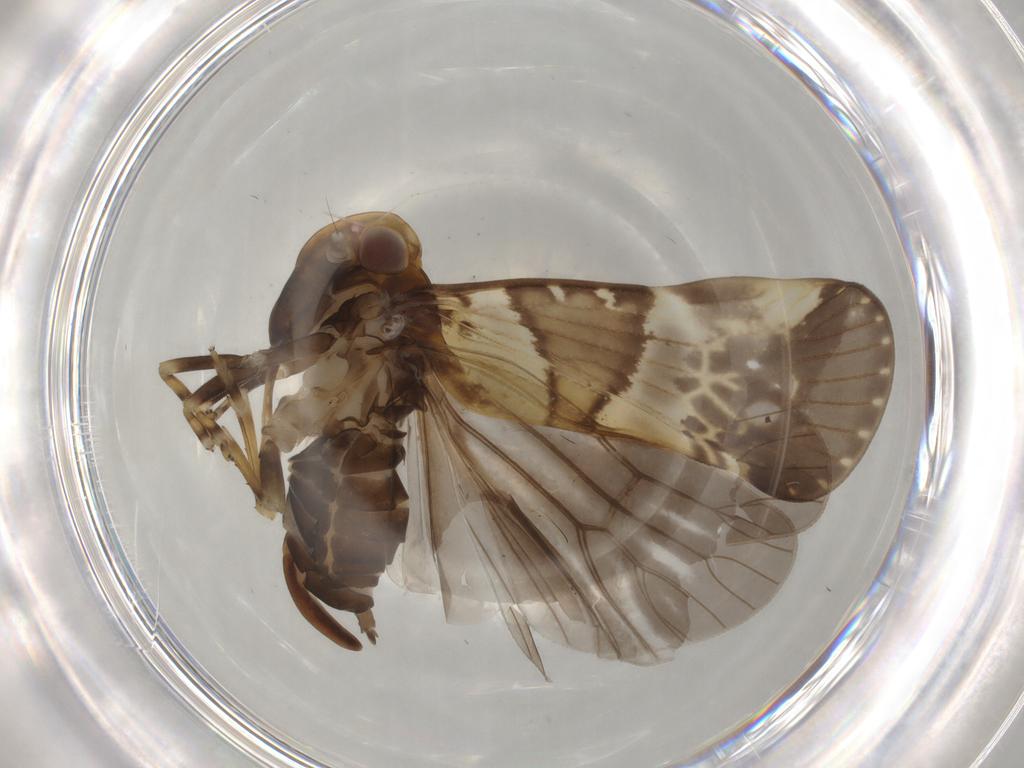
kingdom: Animalia
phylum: Arthropoda
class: Insecta
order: Hemiptera
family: Cixiidae
